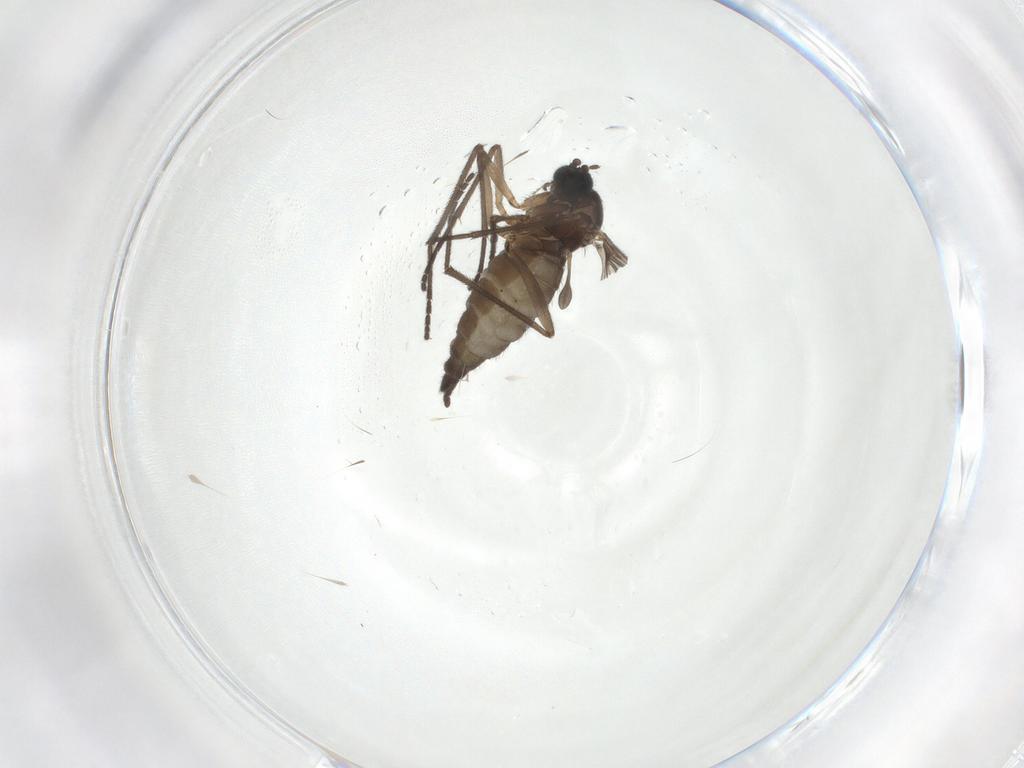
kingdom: Animalia
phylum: Arthropoda
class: Insecta
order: Diptera
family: Sciaridae
